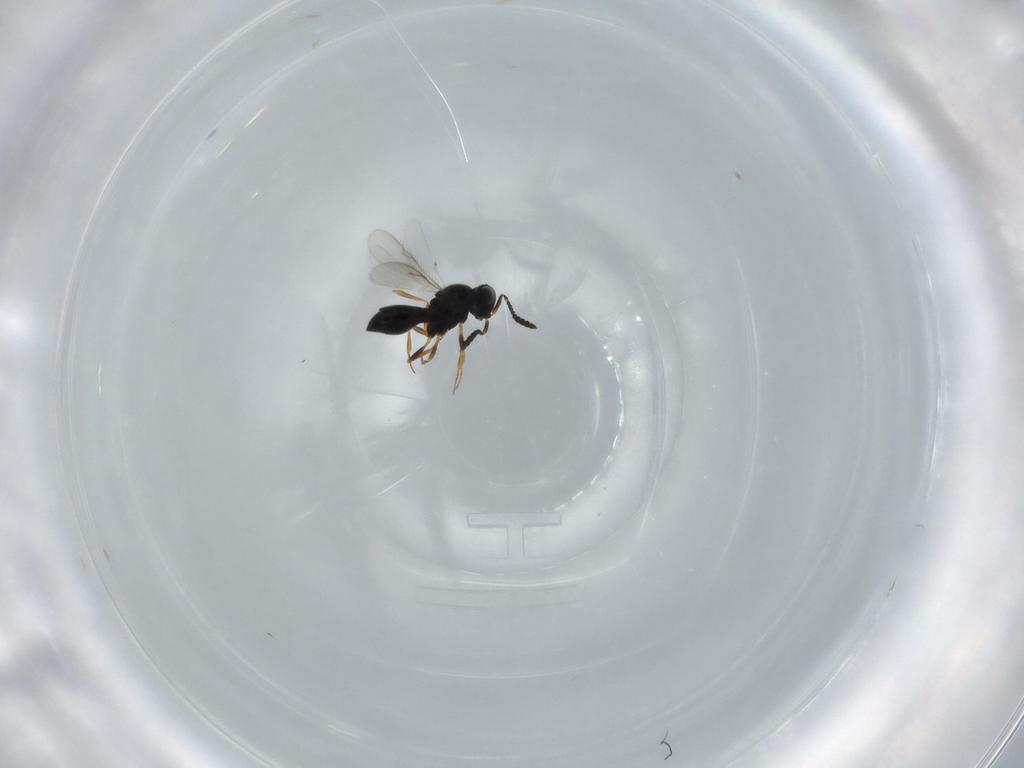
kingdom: Animalia
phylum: Arthropoda
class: Insecta
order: Hymenoptera
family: Scelionidae
